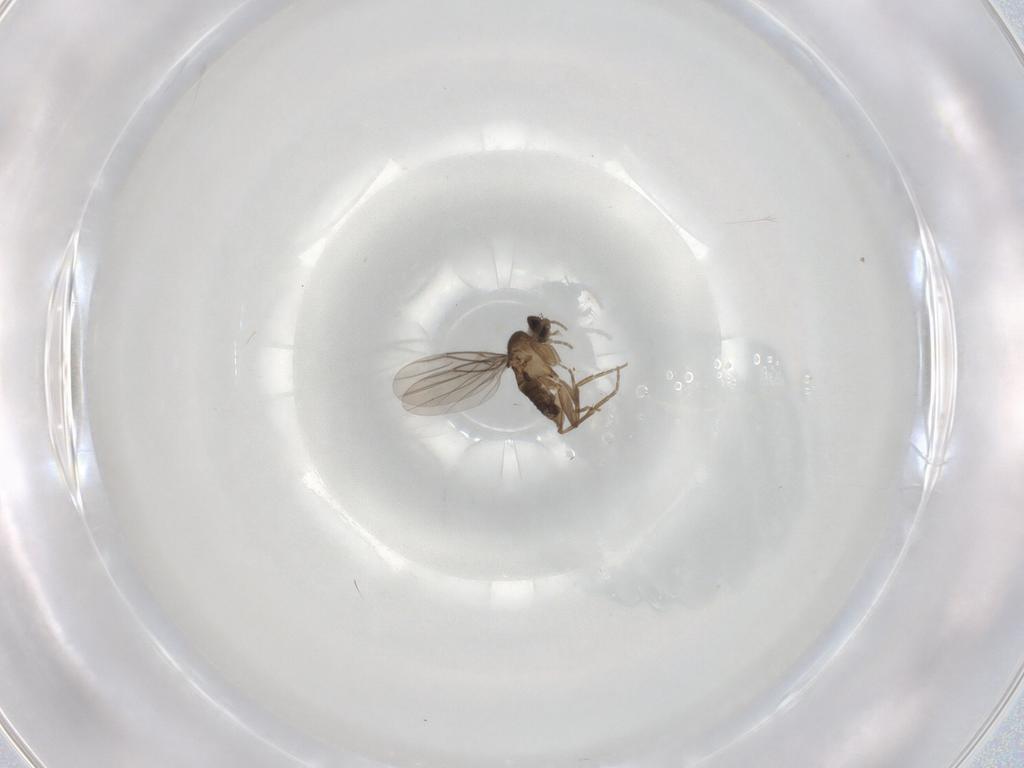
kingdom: Animalia
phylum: Arthropoda
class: Insecta
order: Diptera
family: Phoridae
